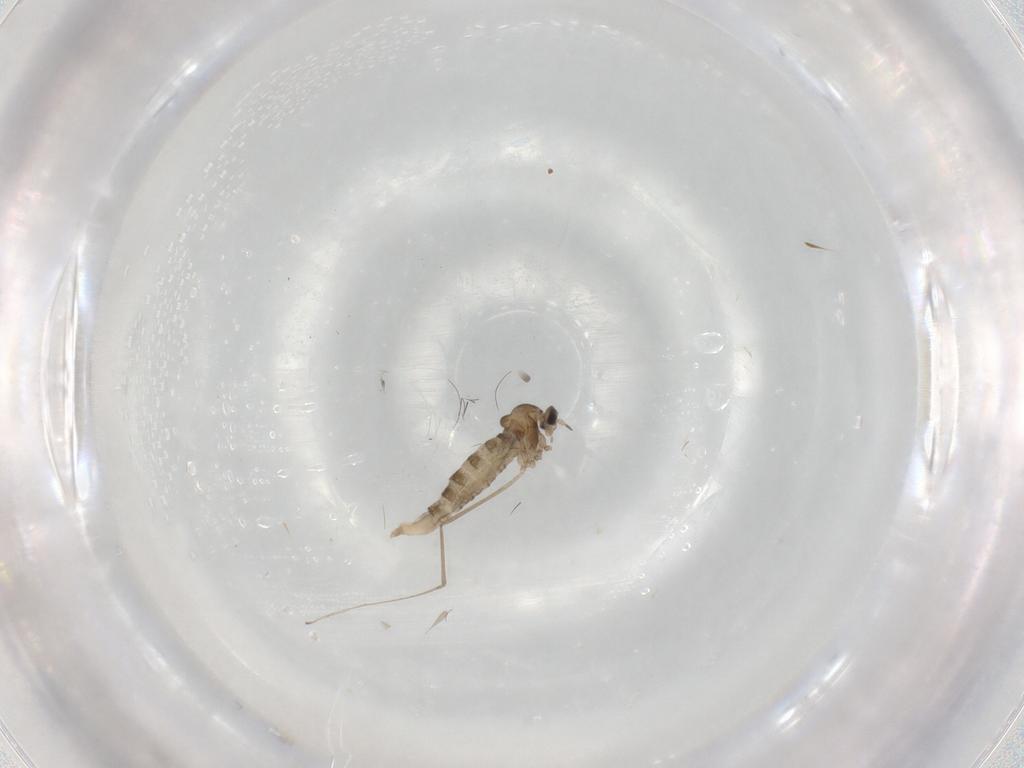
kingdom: Animalia
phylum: Arthropoda
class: Insecta
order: Diptera
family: Cecidomyiidae
